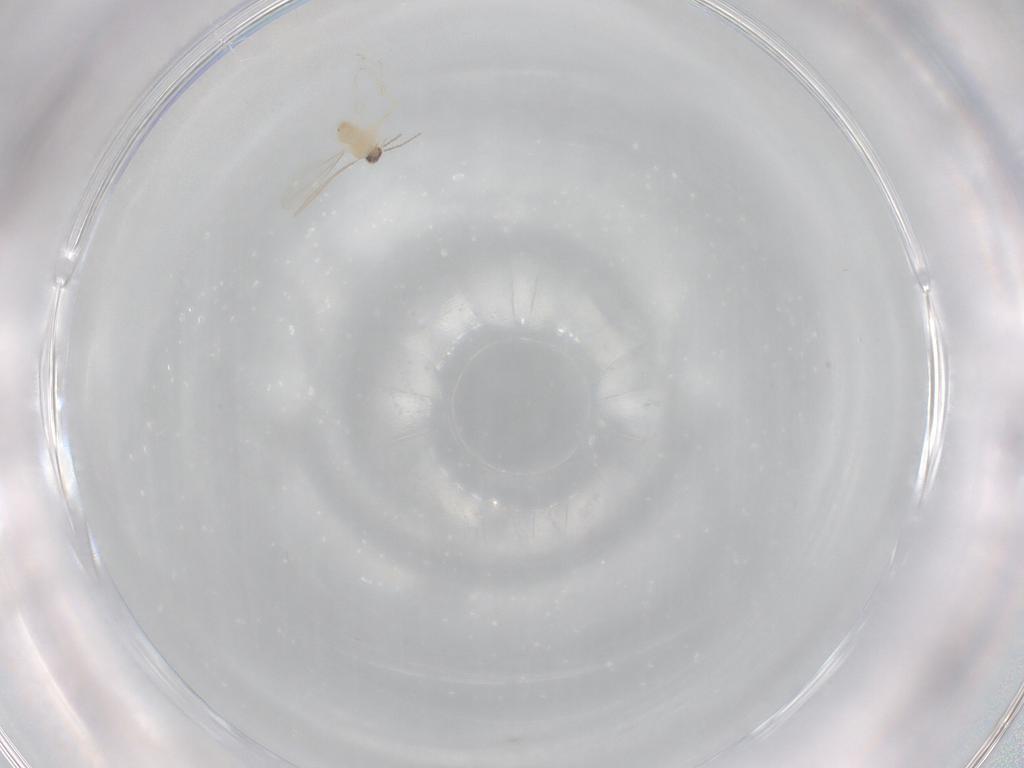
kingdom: Animalia
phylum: Arthropoda
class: Insecta
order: Diptera
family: Cecidomyiidae
